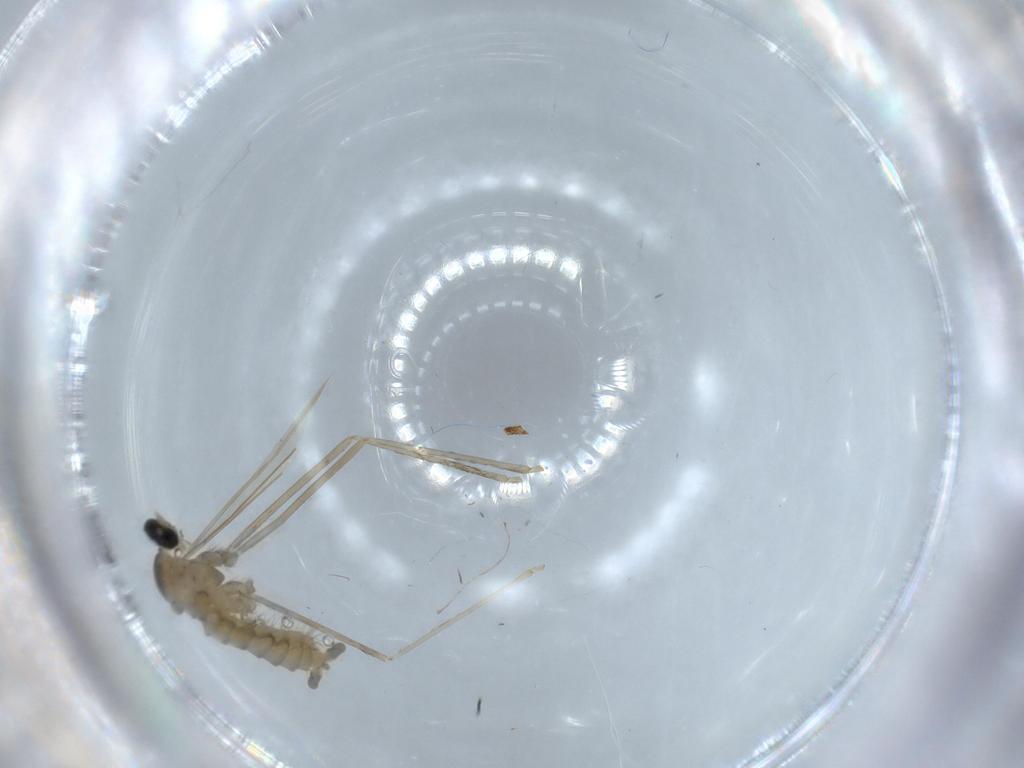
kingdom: Animalia
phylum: Arthropoda
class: Insecta
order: Diptera
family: Cecidomyiidae
